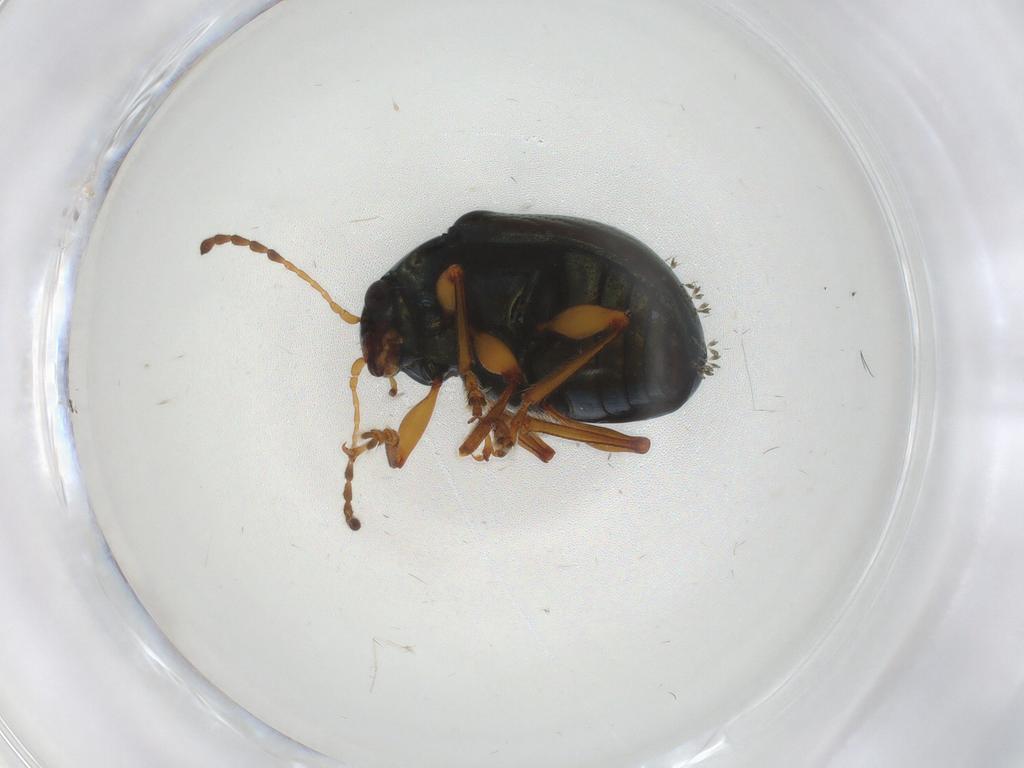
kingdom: Animalia
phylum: Arthropoda
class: Insecta
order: Coleoptera
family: Chrysomelidae
